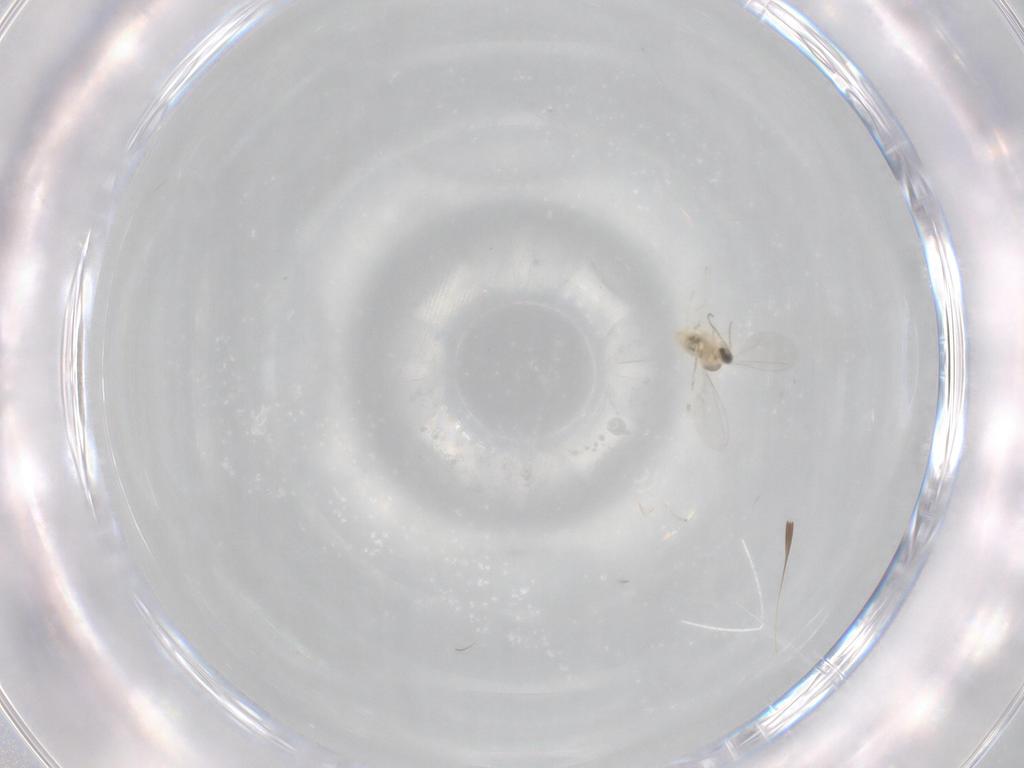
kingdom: Animalia
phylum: Arthropoda
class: Insecta
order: Diptera
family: Cecidomyiidae
